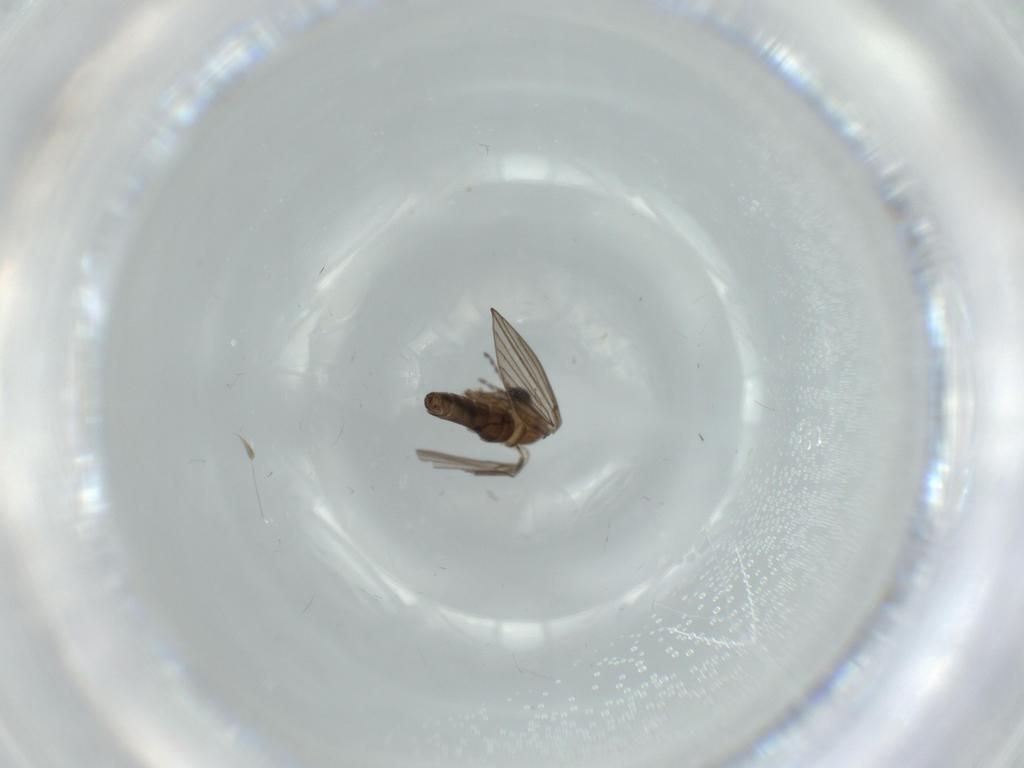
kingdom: Animalia
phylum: Arthropoda
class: Insecta
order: Diptera
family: Psychodidae
